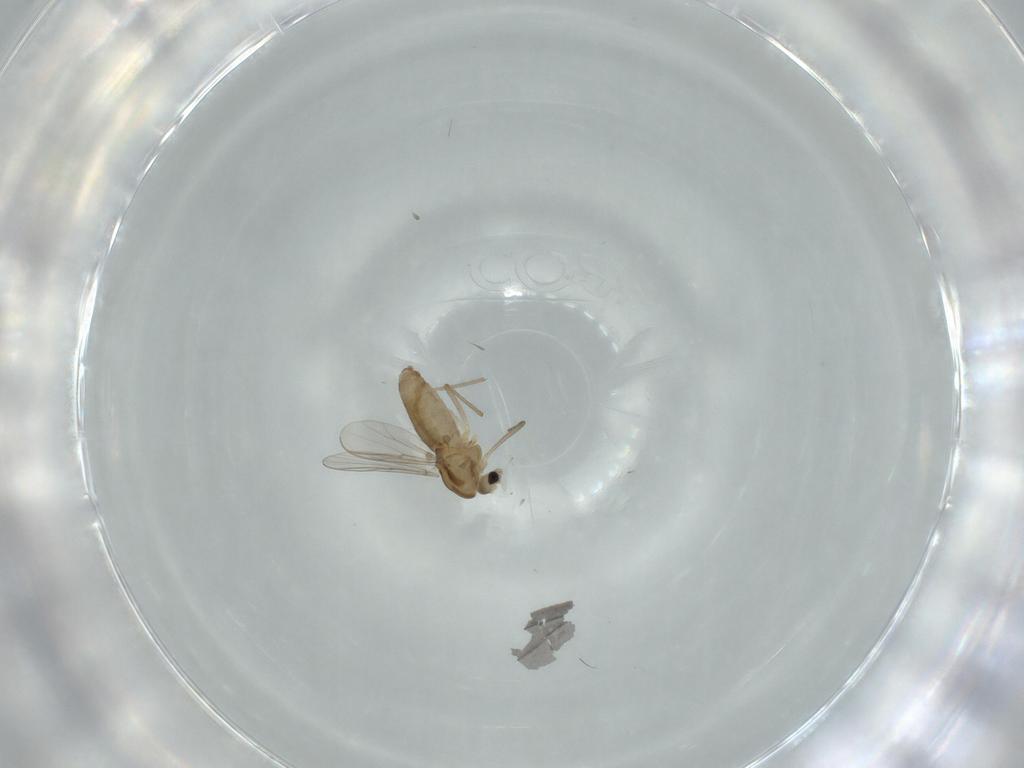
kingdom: Animalia
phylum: Arthropoda
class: Insecta
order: Diptera
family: Chironomidae
